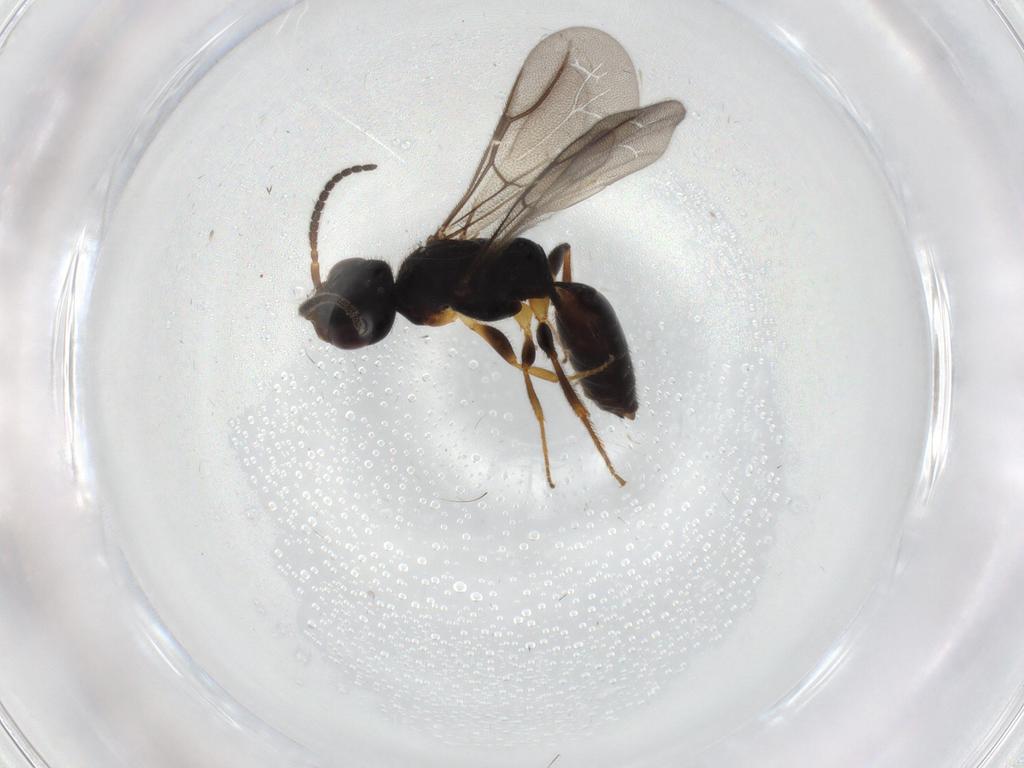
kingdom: Animalia
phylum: Arthropoda
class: Insecta
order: Hymenoptera
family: Bethylidae
